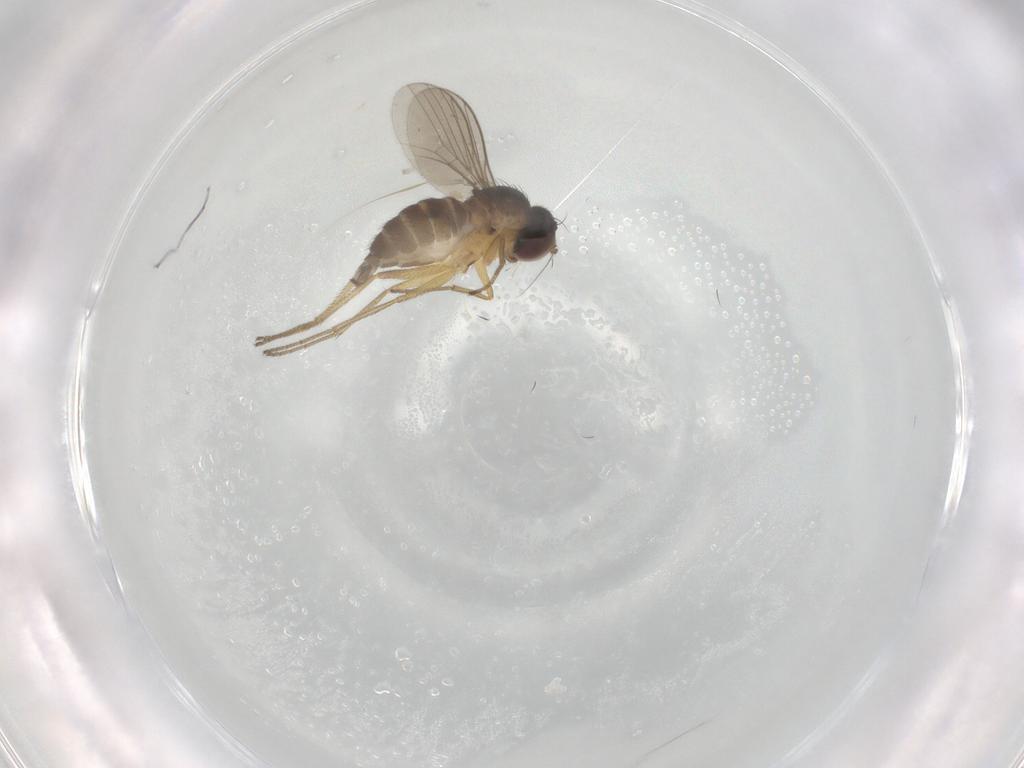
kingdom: Animalia
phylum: Arthropoda
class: Insecta
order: Diptera
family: Dolichopodidae
